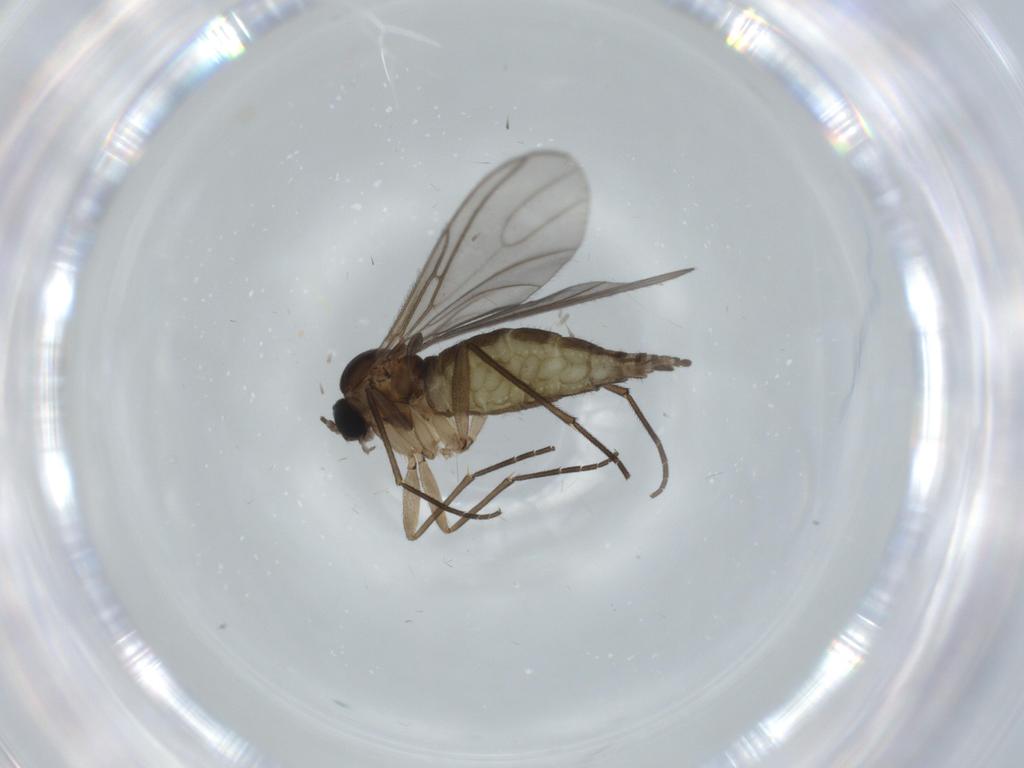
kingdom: Animalia
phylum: Arthropoda
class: Insecta
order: Diptera
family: Sciaridae
